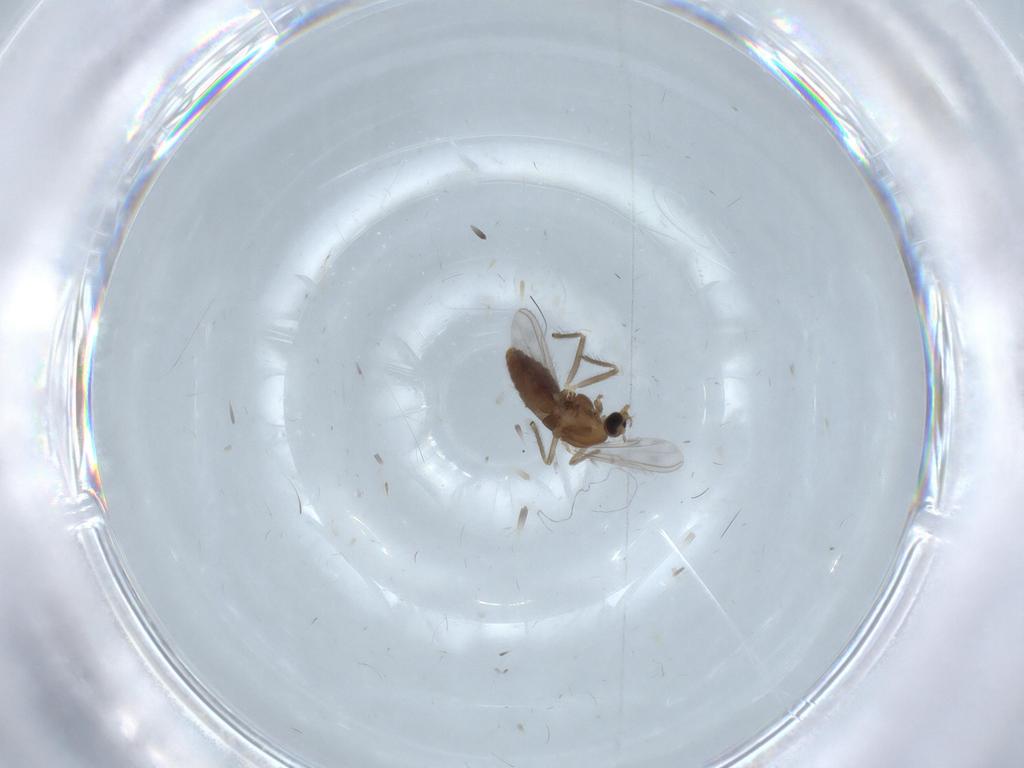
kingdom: Animalia
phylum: Arthropoda
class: Insecta
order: Diptera
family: Chironomidae
